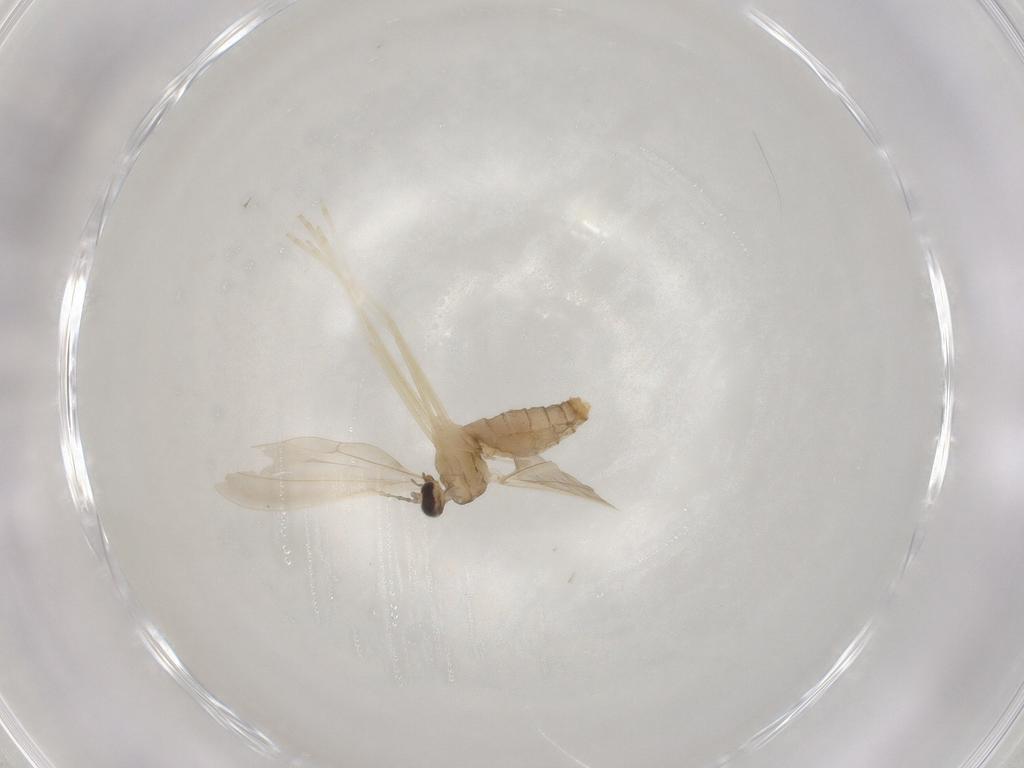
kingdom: Animalia
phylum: Arthropoda
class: Insecta
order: Diptera
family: Cecidomyiidae
